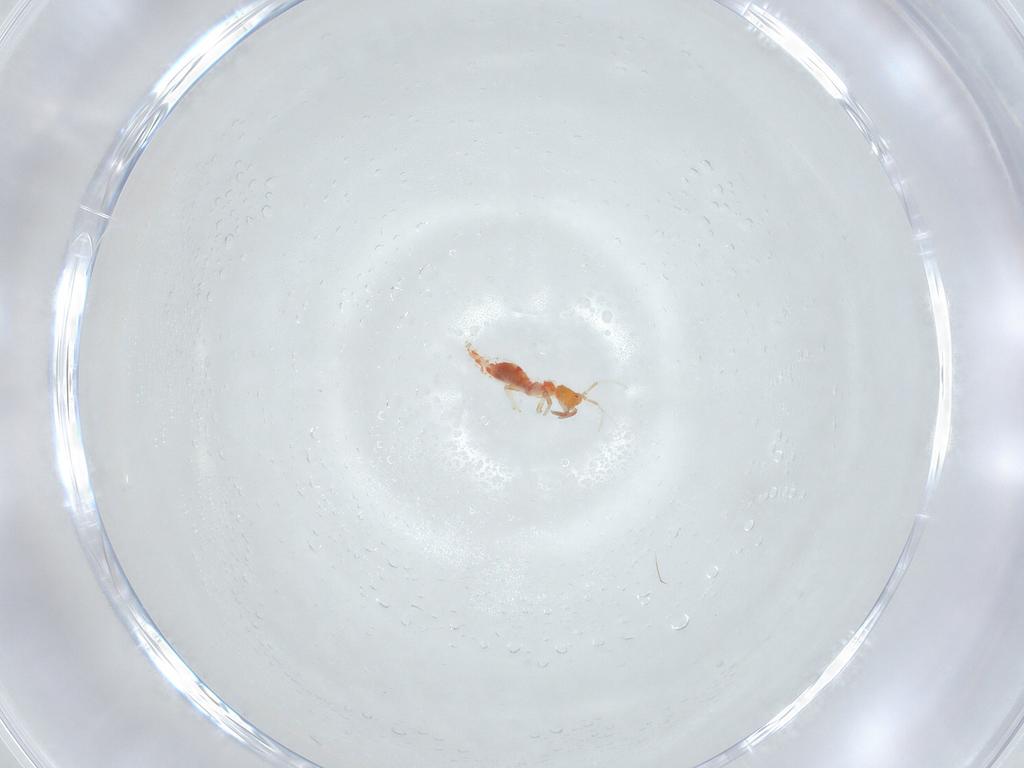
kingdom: Animalia
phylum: Arthropoda
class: Insecta
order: Thysanoptera
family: Aeolothripidae
